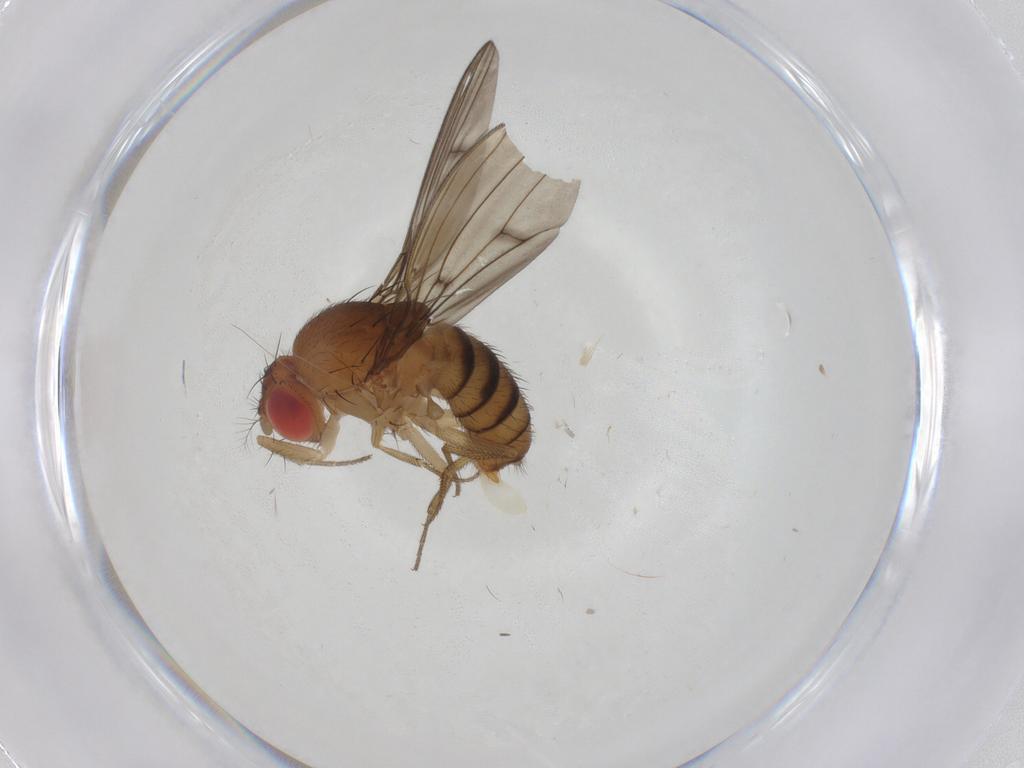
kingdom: Animalia
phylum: Arthropoda
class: Insecta
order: Diptera
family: Drosophilidae
